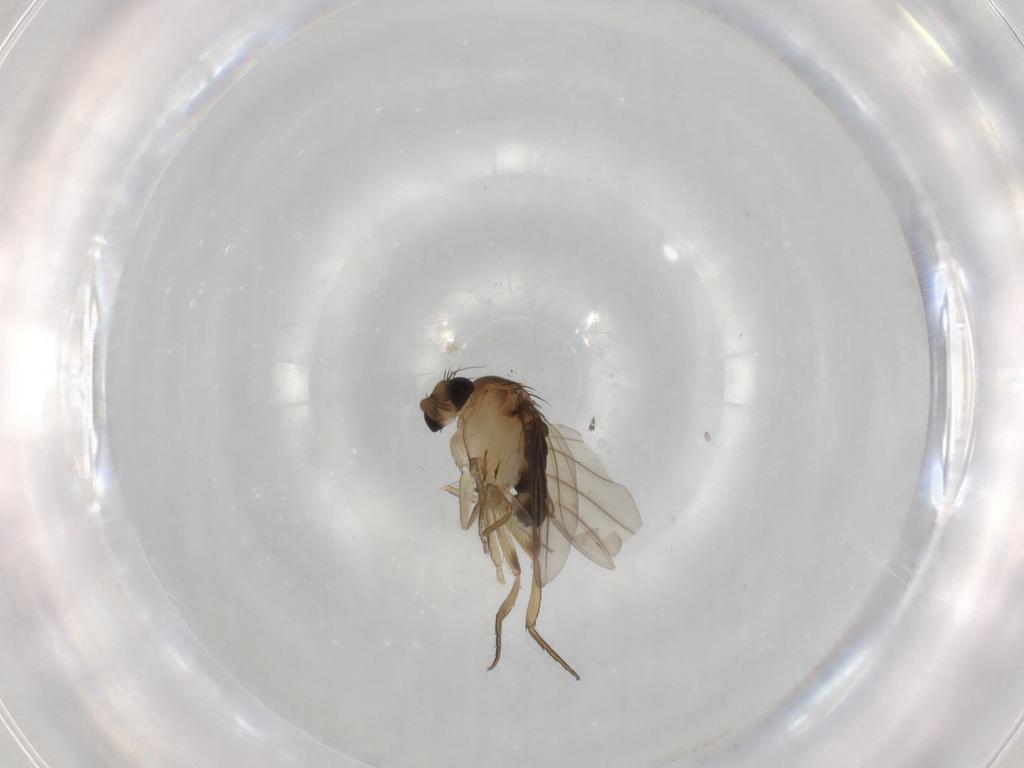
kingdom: Animalia
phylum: Arthropoda
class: Insecta
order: Diptera
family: Phoridae
